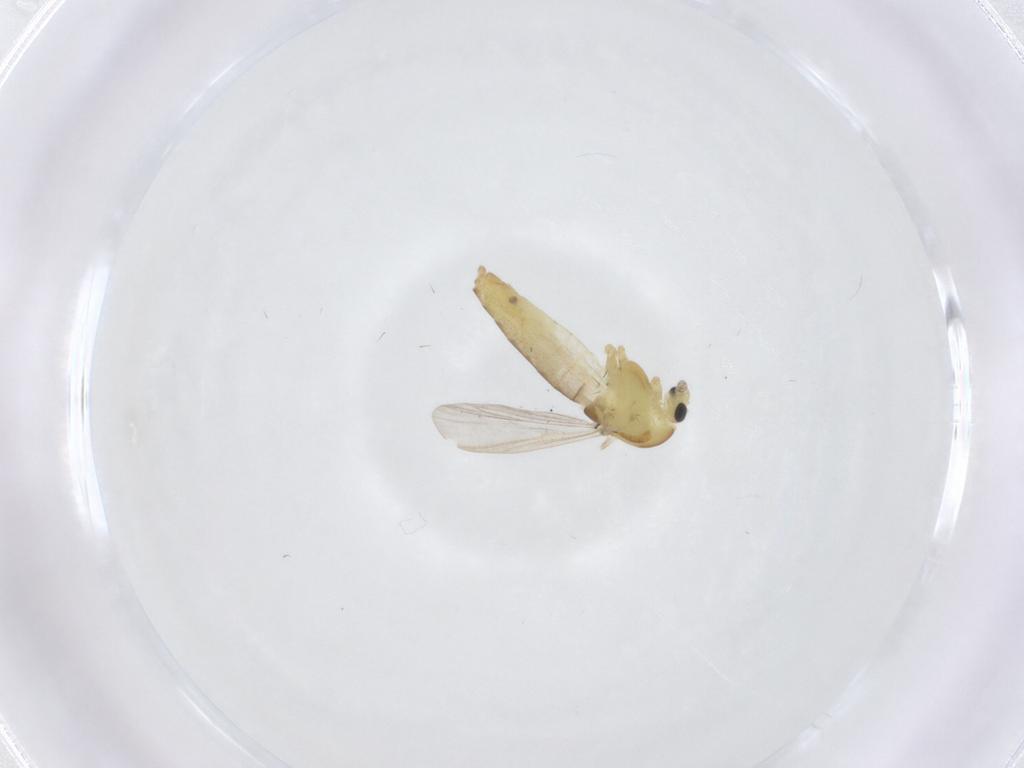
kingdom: Animalia
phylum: Arthropoda
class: Insecta
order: Diptera
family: Chironomidae
